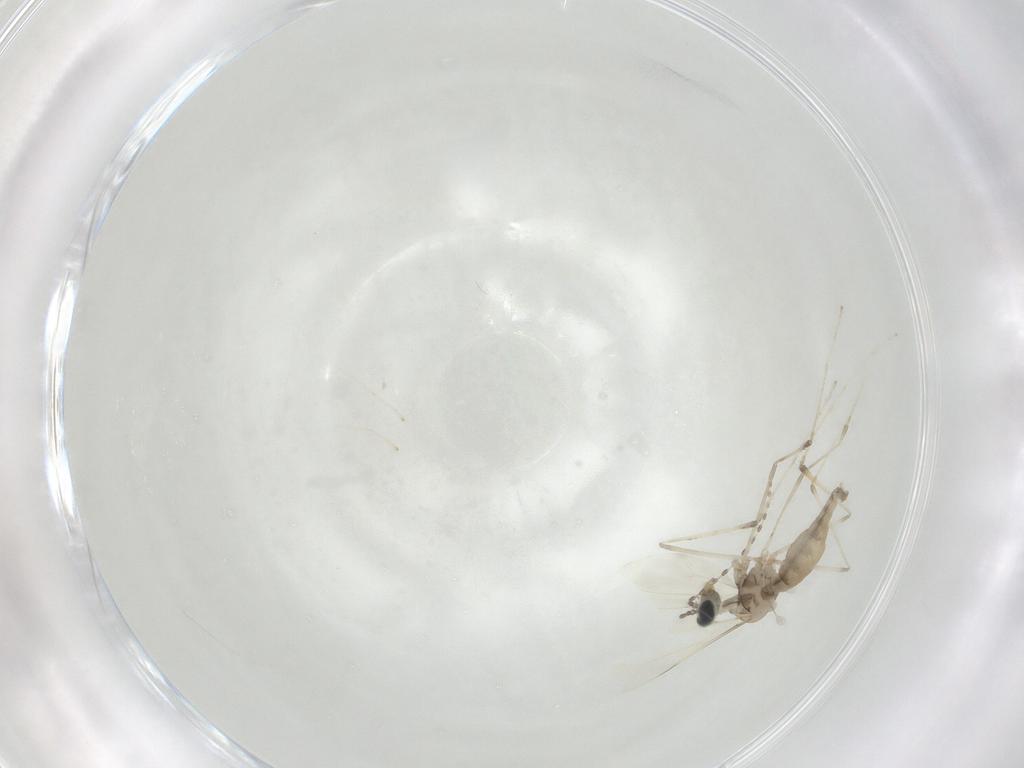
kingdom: Animalia
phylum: Arthropoda
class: Insecta
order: Diptera
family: Cecidomyiidae
